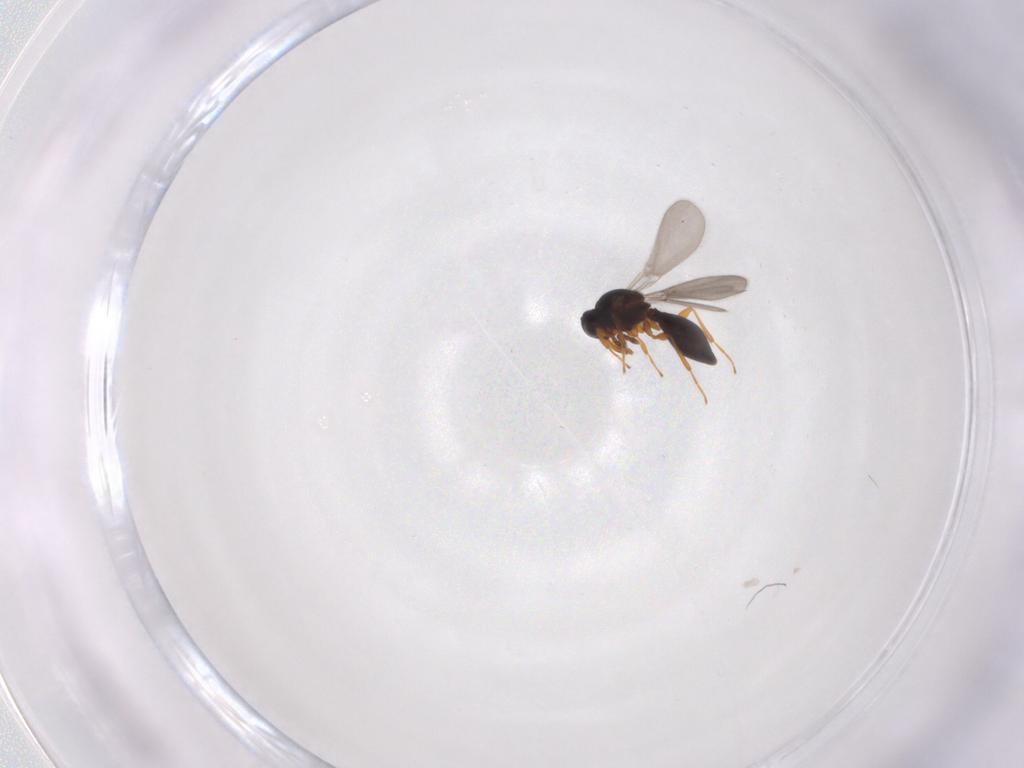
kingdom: Animalia
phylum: Arthropoda
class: Insecta
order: Hymenoptera
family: Platygastridae
